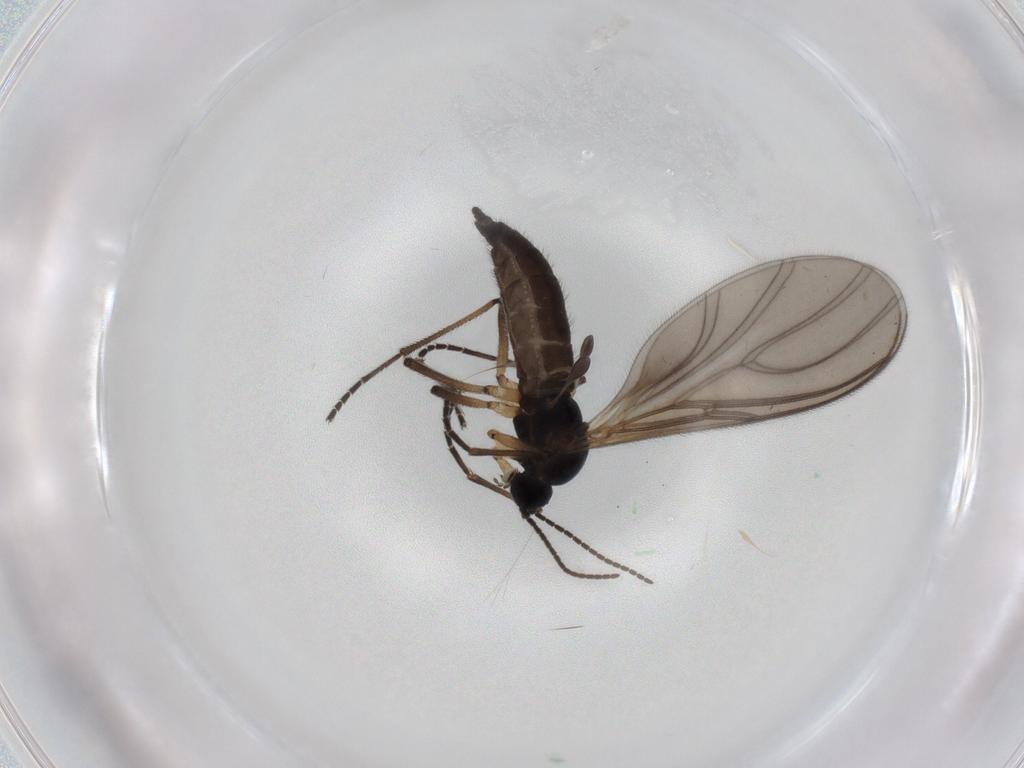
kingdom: Animalia
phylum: Arthropoda
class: Insecta
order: Diptera
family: Sciaridae
